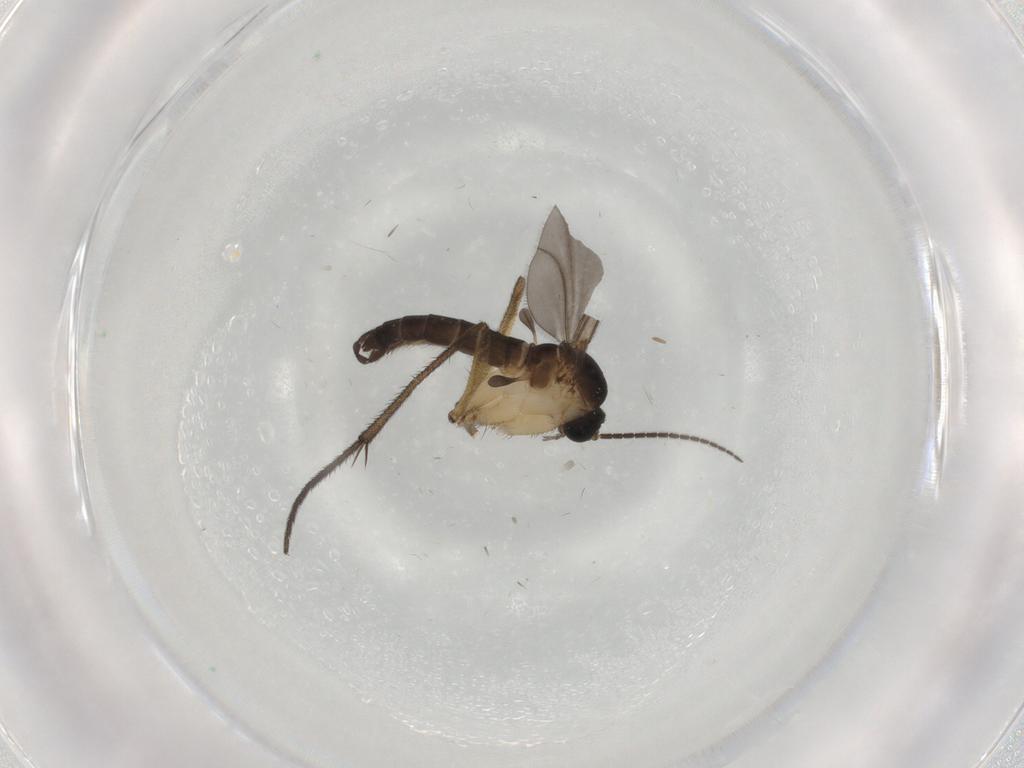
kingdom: Animalia
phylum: Arthropoda
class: Insecta
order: Diptera
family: Sciaridae
